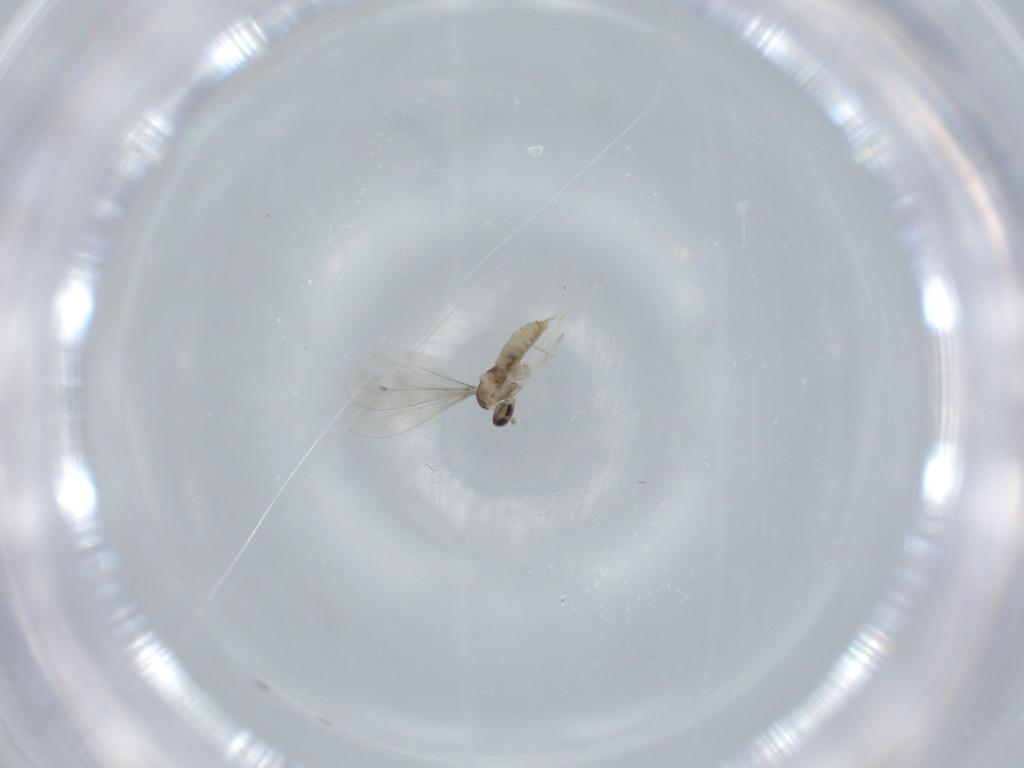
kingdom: Animalia
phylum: Arthropoda
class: Insecta
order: Diptera
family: Cecidomyiidae
